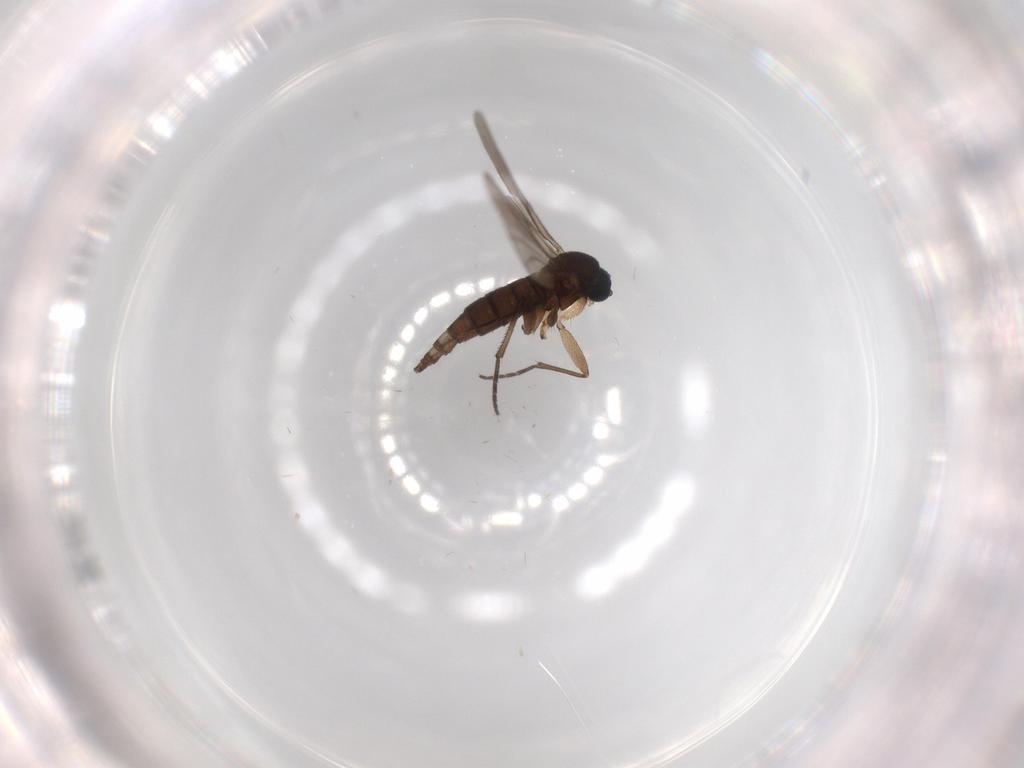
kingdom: Animalia
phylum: Arthropoda
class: Insecta
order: Diptera
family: Sciaridae
